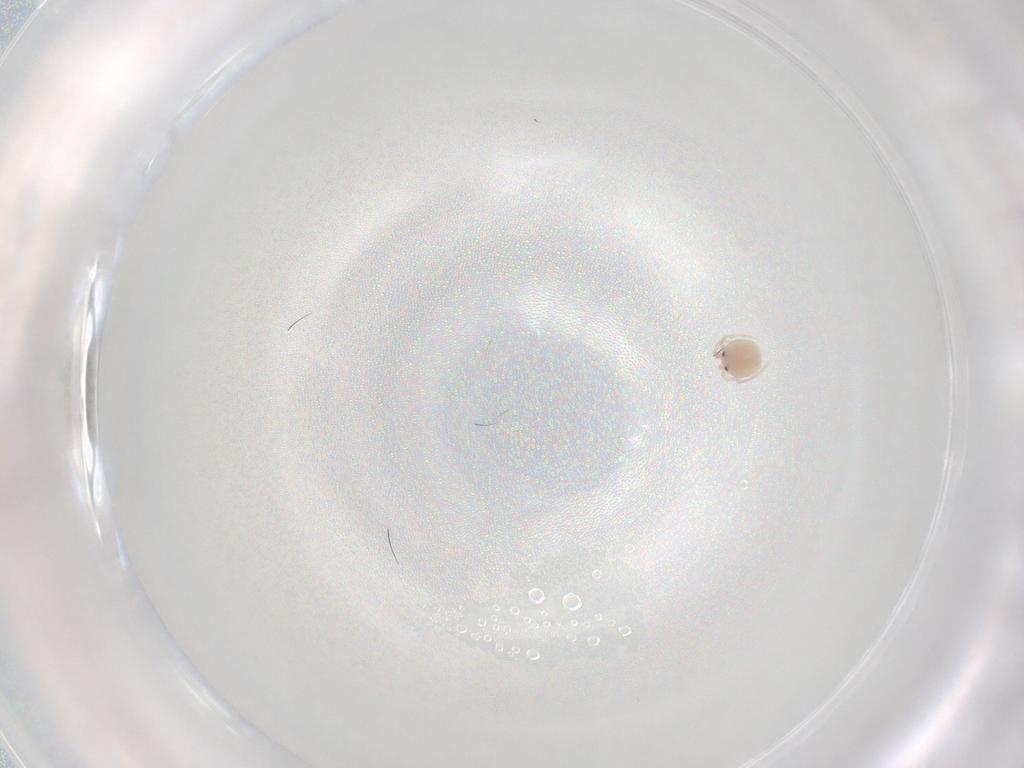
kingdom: Animalia
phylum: Arthropoda
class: Arachnida
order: Trombidiformes
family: Lebertiidae
